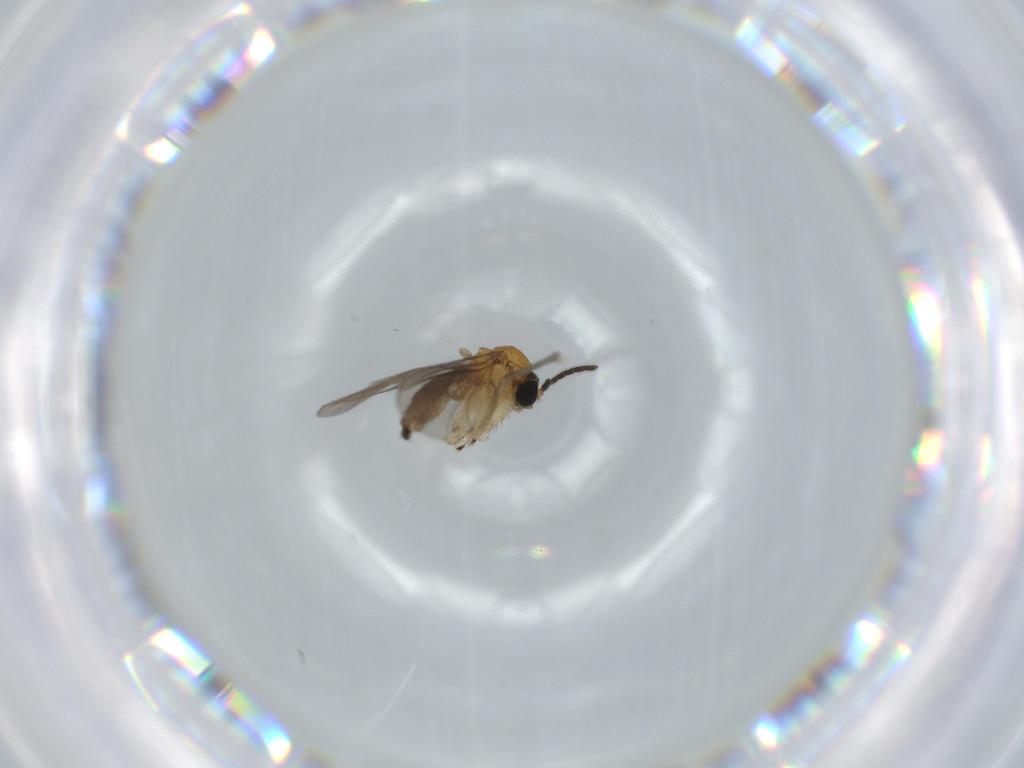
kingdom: Animalia
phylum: Arthropoda
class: Insecta
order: Diptera
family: Sciaridae
